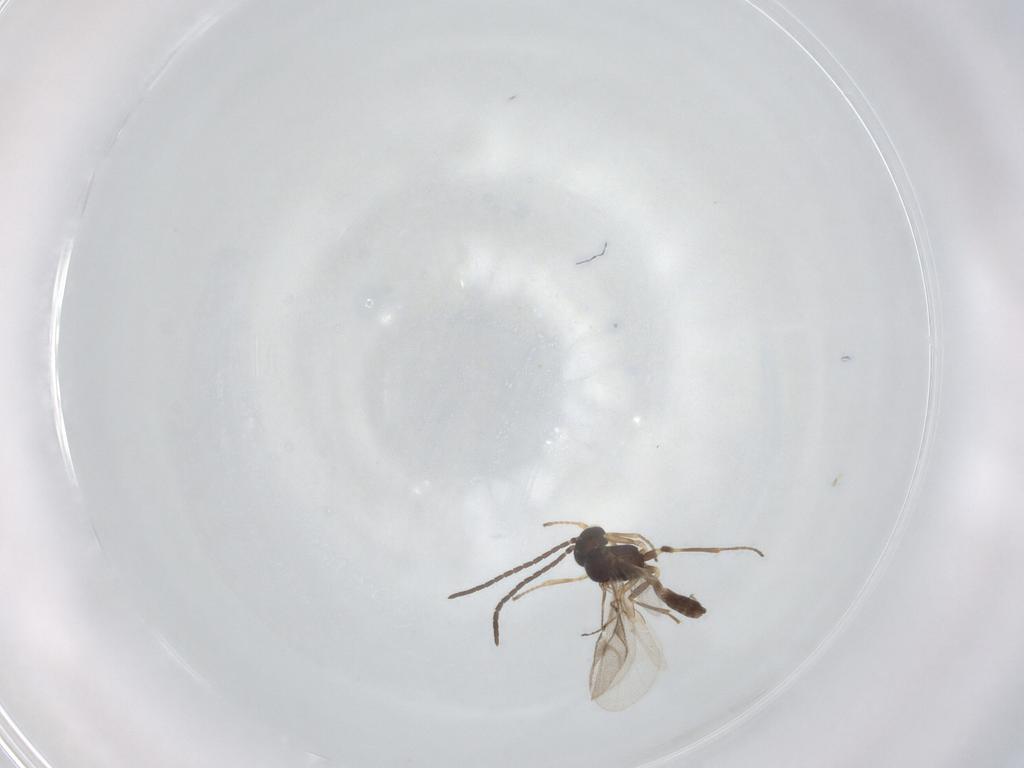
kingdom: Animalia
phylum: Arthropoda
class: Insecta
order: Hymenoptera
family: Braconidae
